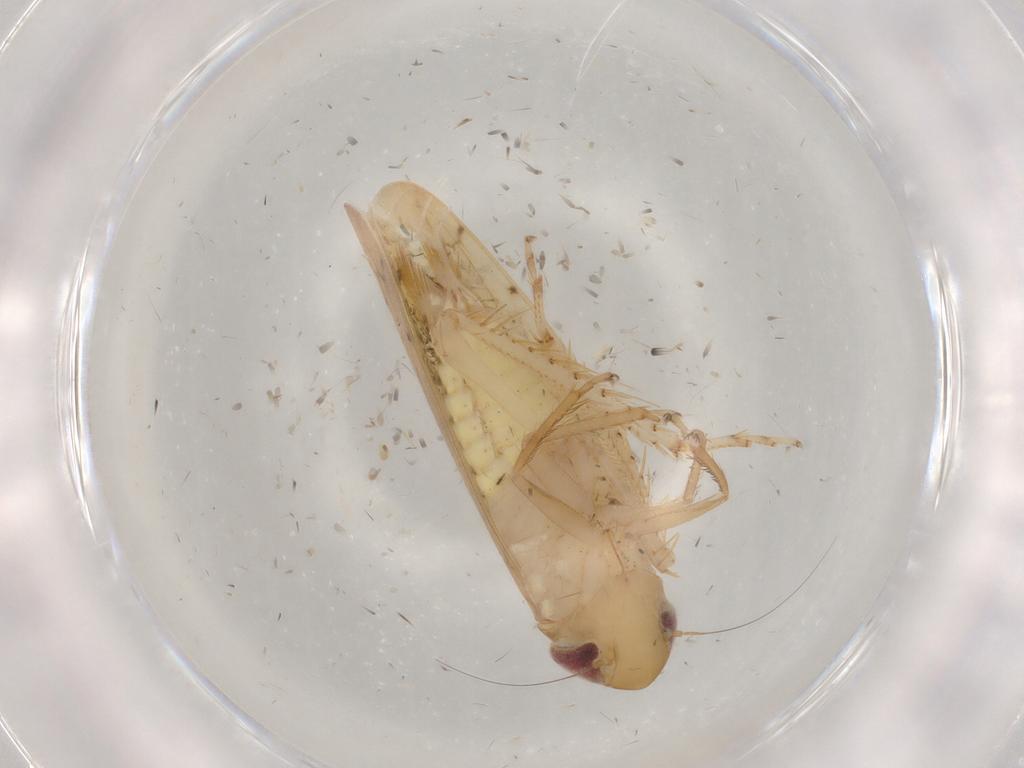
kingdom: Animalia
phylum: Arthropoda
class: Insecta
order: Hemiptera
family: Cicadellidae
